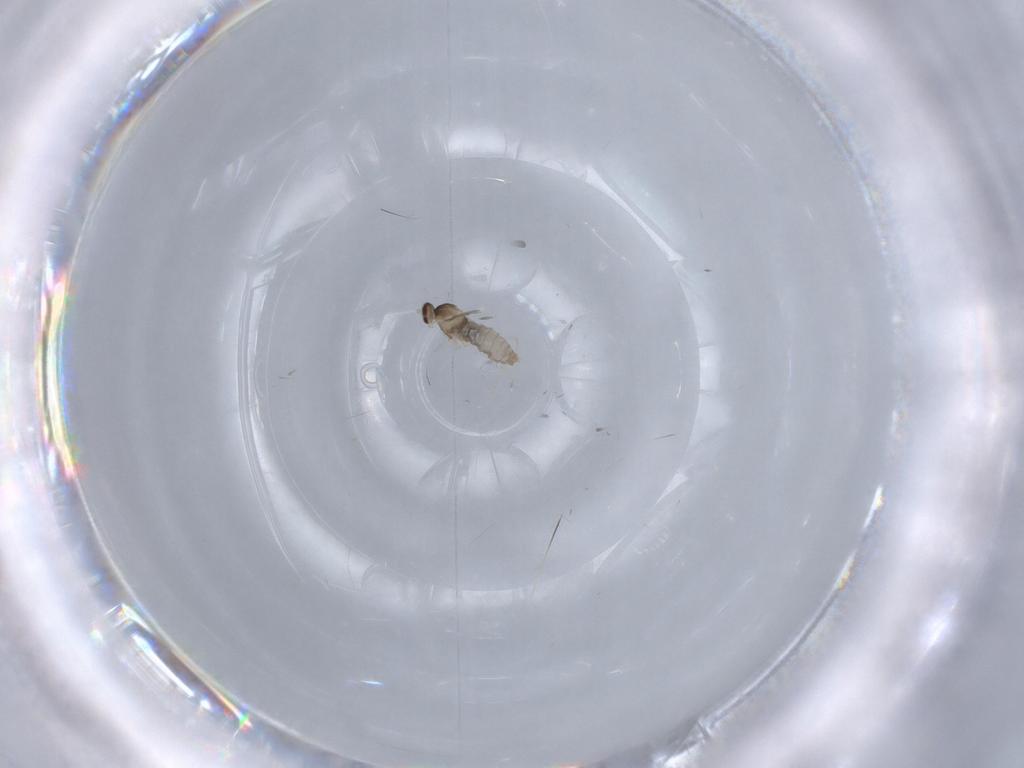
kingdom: Animalia
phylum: Arthropoda
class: Insecta
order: Diptera
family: Cecidomyiidae
